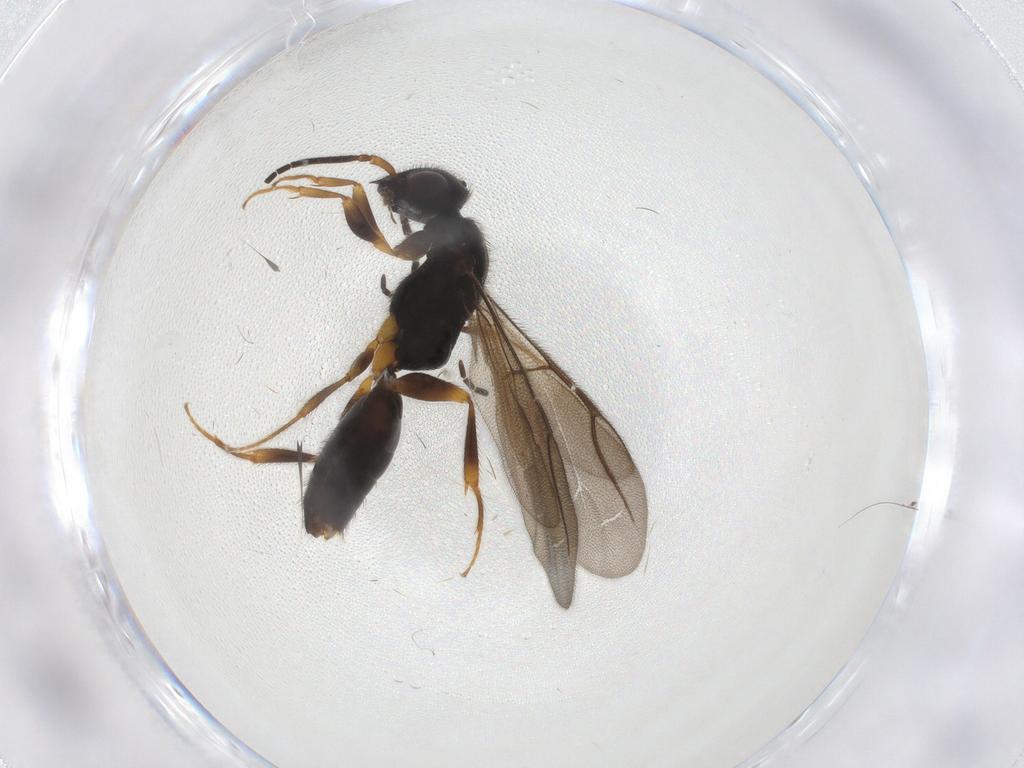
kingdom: Animalia
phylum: Arthropoda
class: Insecta
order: Hymenoptera
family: Bethylidae
